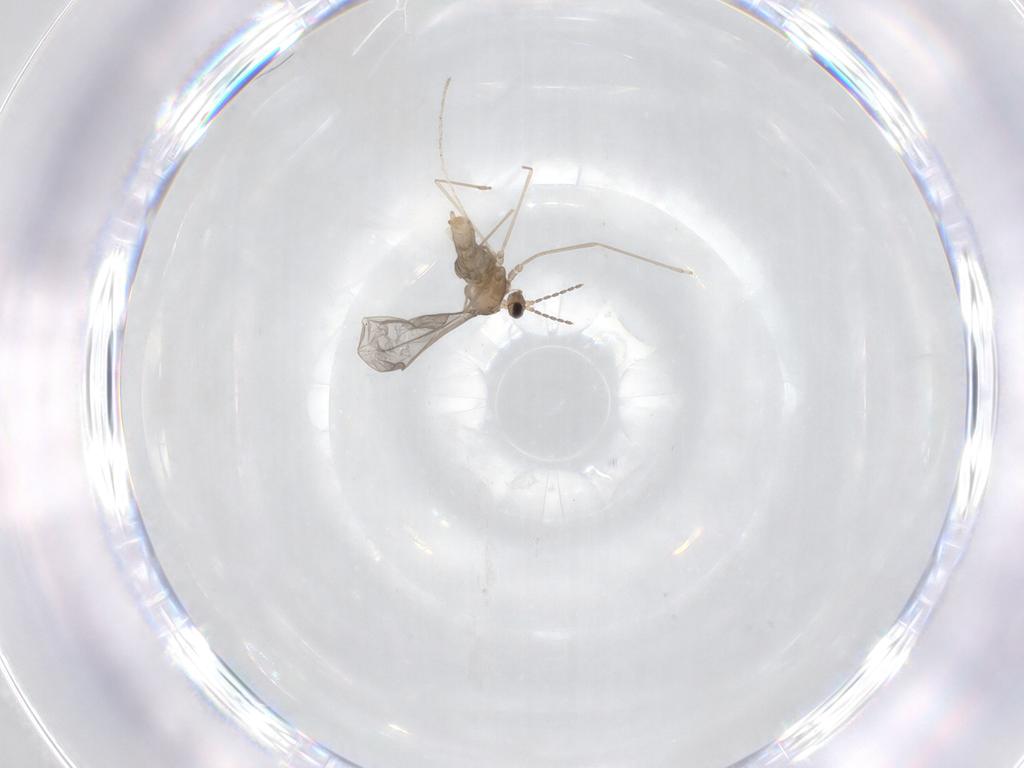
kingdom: Animalia
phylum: Arthropoda
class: Insecta
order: Diptera
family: Cecidomyiidae
